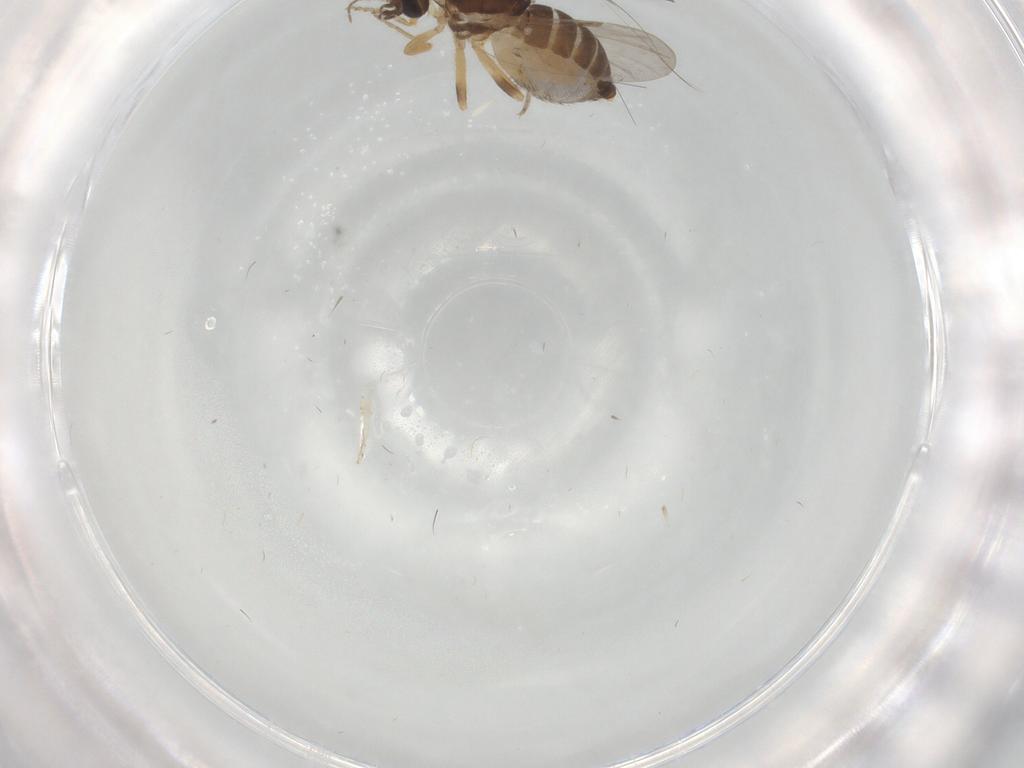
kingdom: Animalia
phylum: Arthropoda
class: Insecta
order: Diptera
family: Ceratopogonidae
